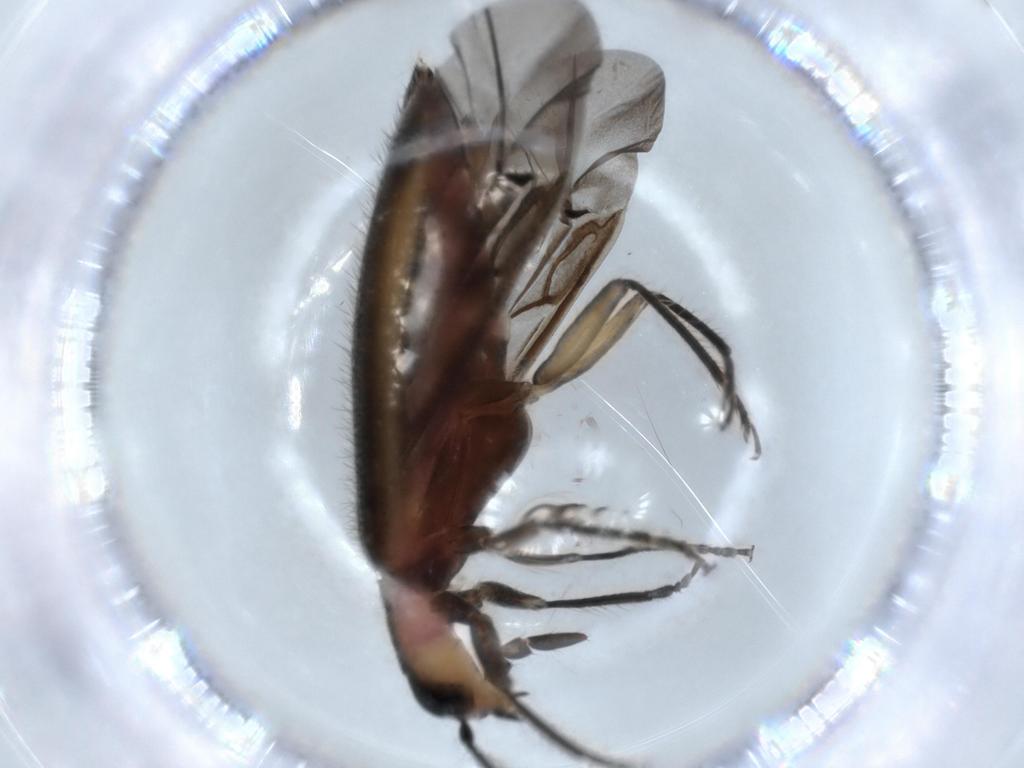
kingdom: Animalia
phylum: Arthropoda
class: Insecta
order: Coleoptera
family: Cleridae
